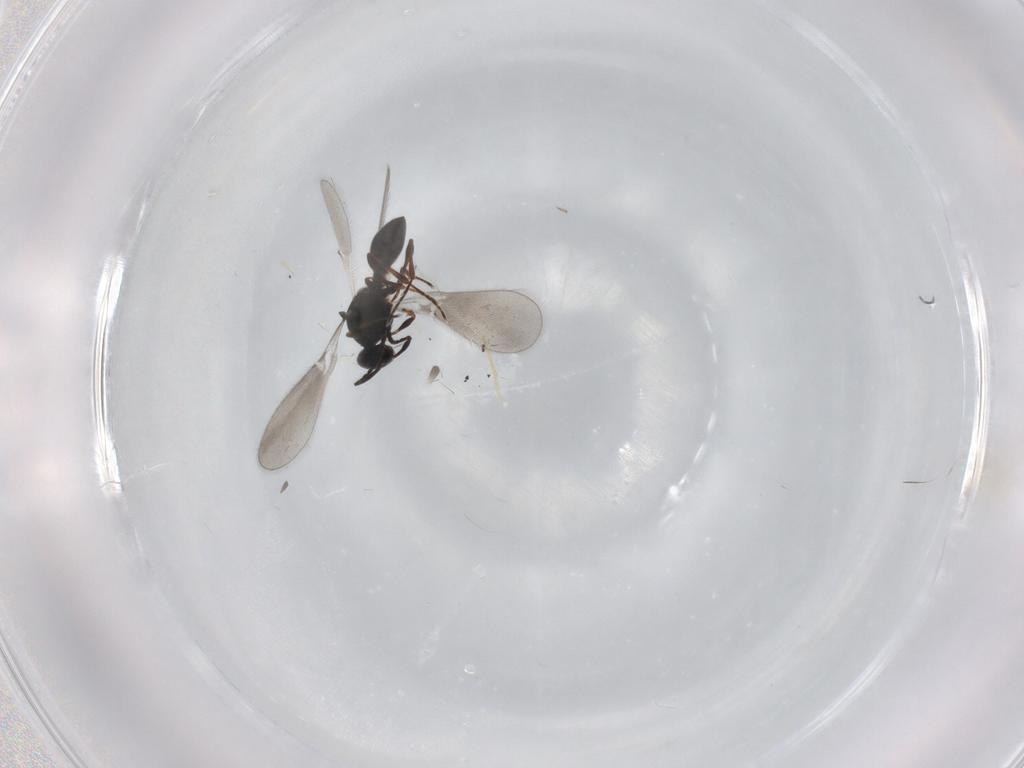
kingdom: Animalia
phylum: Arthropoda
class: Insecta
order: Hymenoptera
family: Platygastridae
